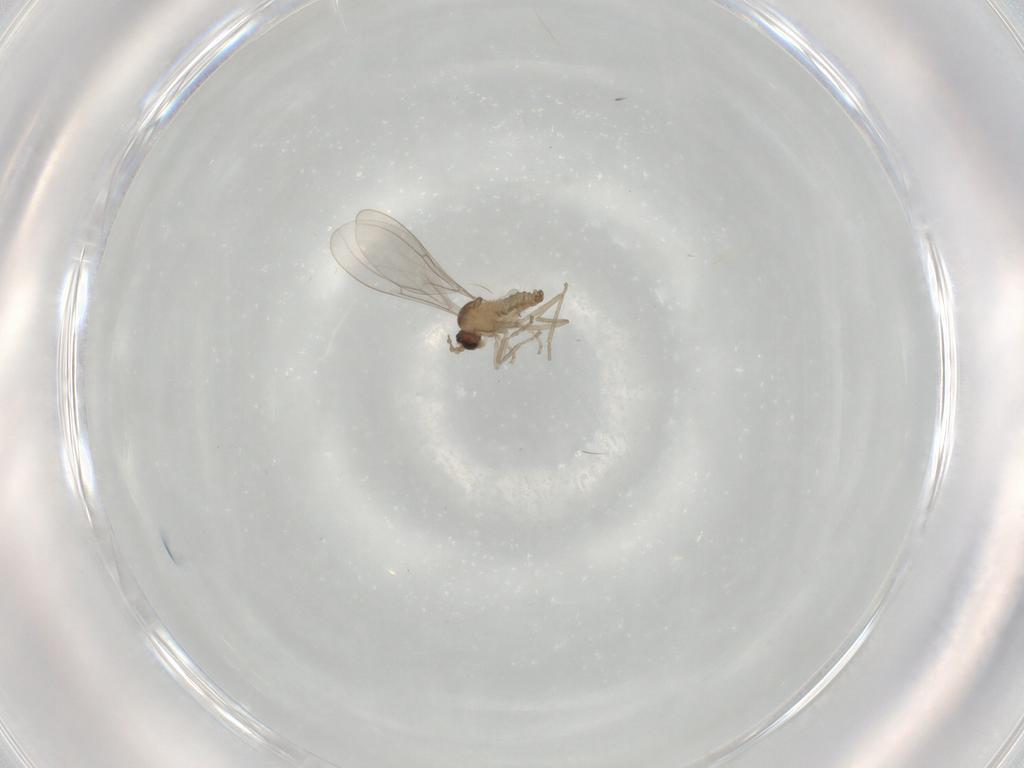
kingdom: Animalia
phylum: Arthropoda
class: Insecta
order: Diptera
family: Cecidomyiidae
